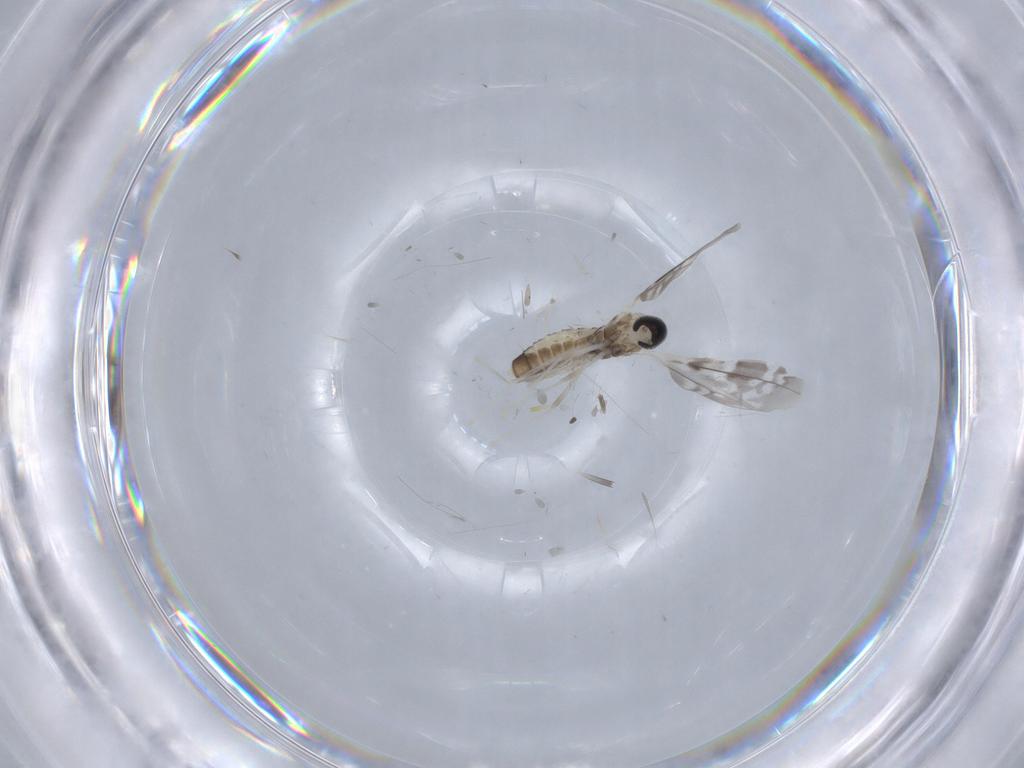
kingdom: Animalia
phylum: Arthropoda
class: Insecta
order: Diptera
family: Cecidomyiidae
